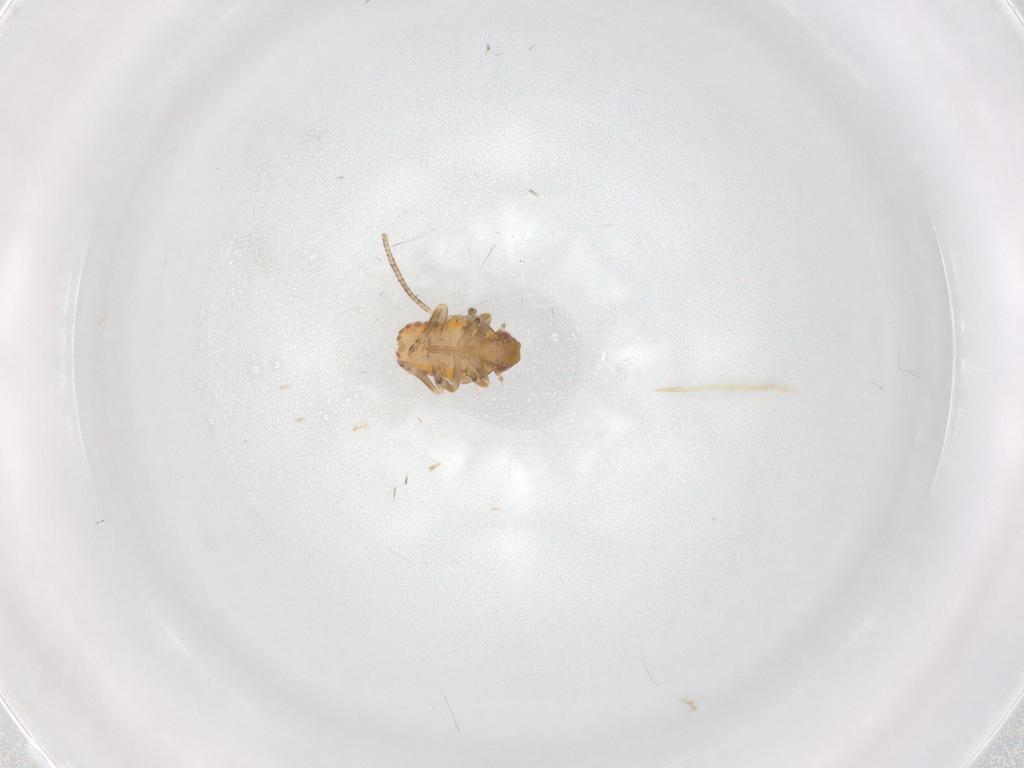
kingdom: Animalia
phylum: Arthropoda
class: Insecta
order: Hemiptera
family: Flatidae
